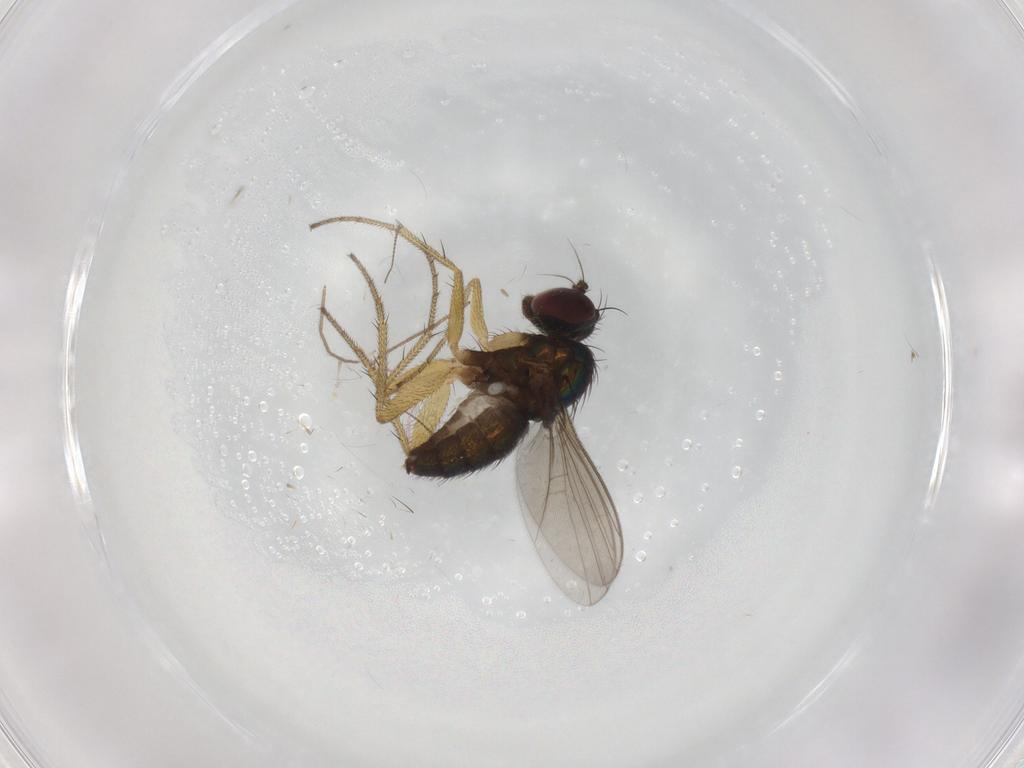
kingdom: Animalia
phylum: Arthropoda
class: Insecta
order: Diptera
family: Chironomidae
